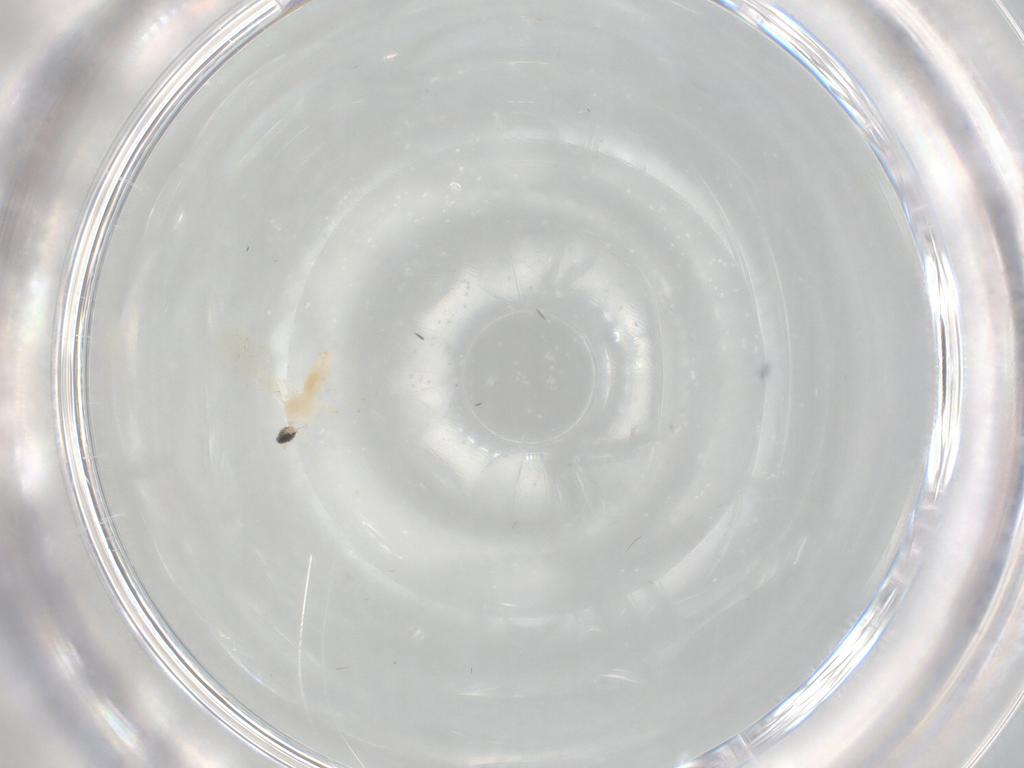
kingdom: Animalia
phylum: Arthropoda
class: Insecta
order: Diptera
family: Cecidomyiidae
